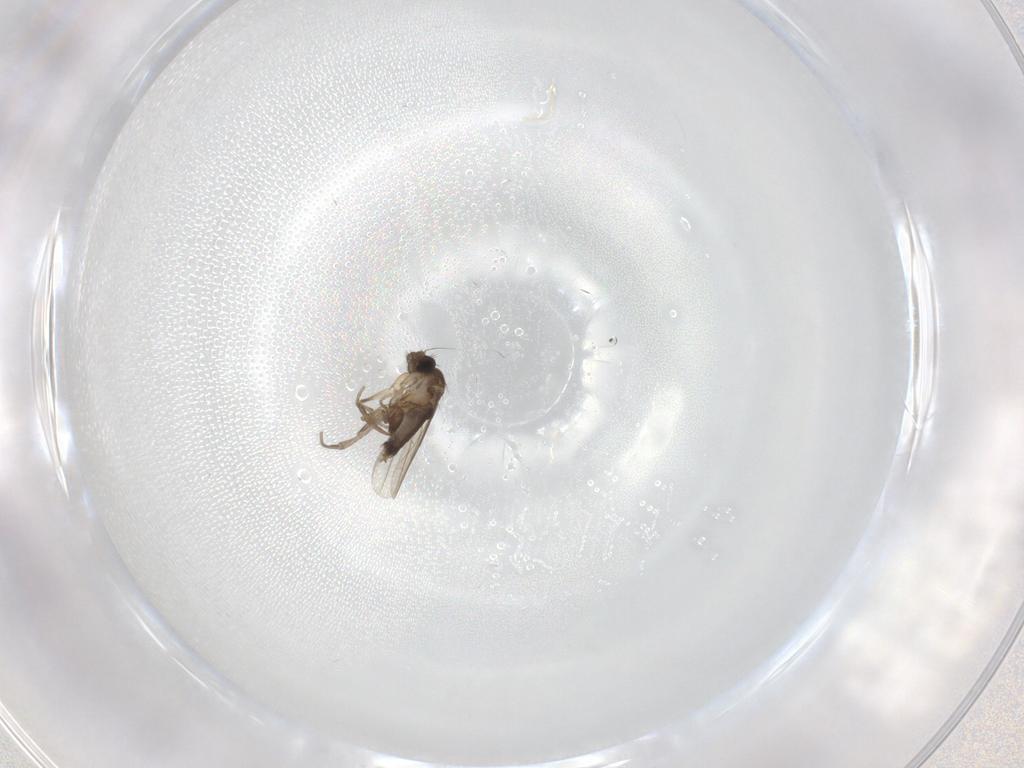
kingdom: Animalia
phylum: Arthropoda
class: Insecta
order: Diptera
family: Chironomidae
